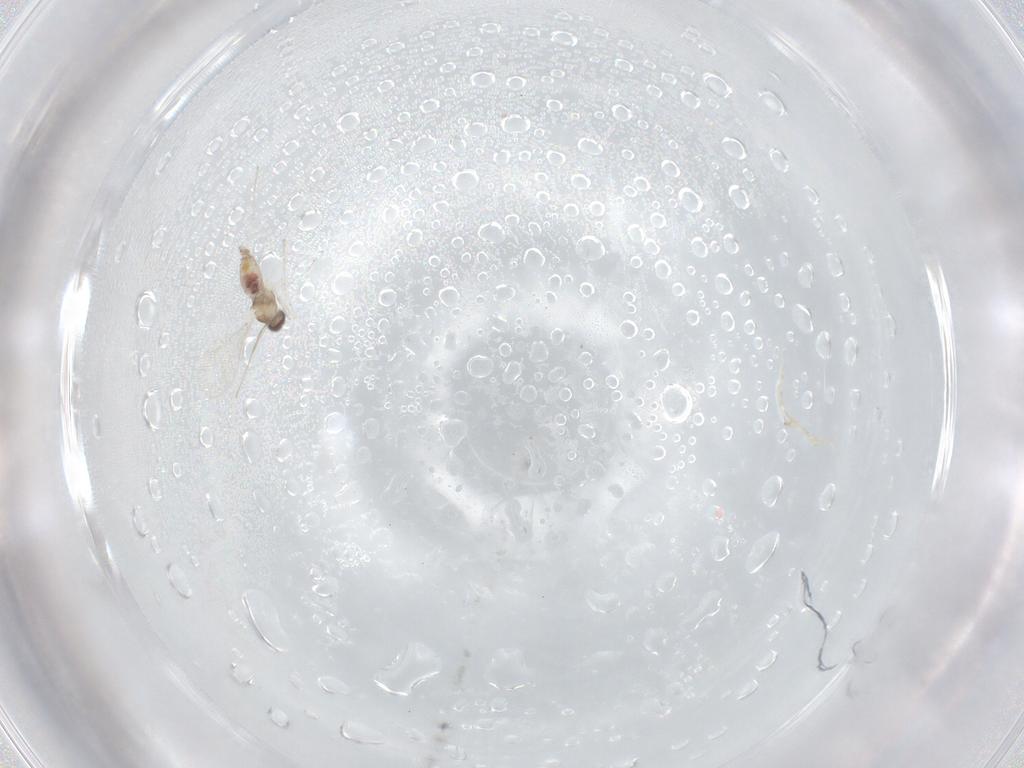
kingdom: Animalia
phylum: Arthropoda
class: Insecta
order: Diptera
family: Cecidomyiidae
